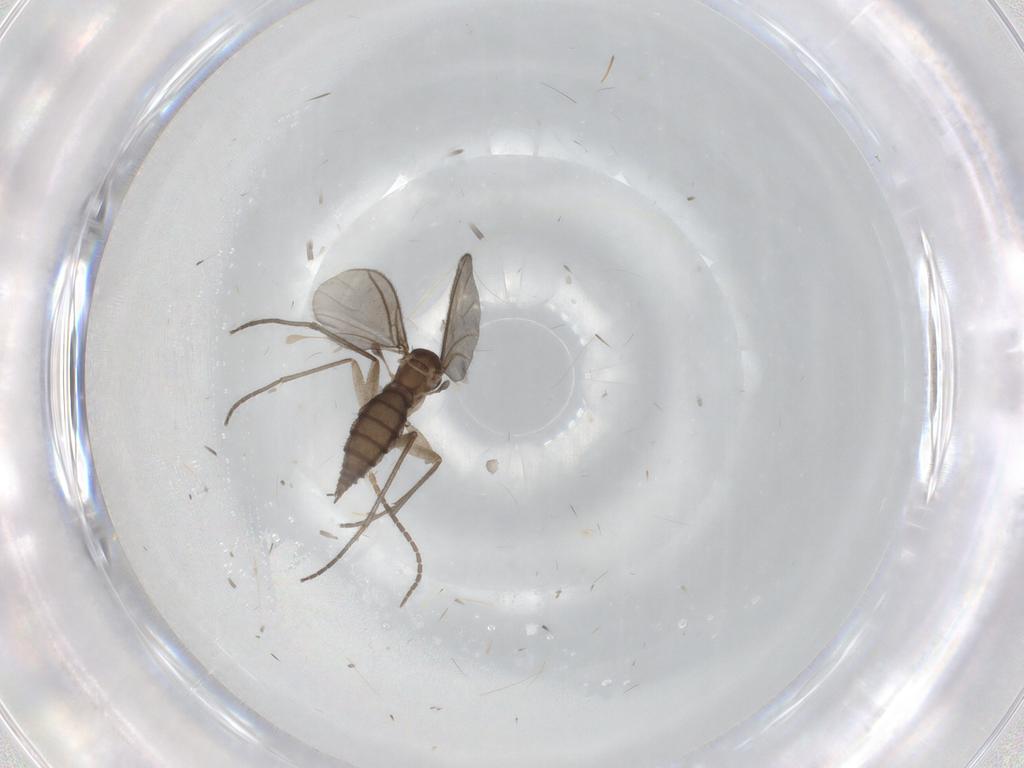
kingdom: Animalia
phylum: Arthropoda
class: Insecta
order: Diptera
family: Sciaridae
